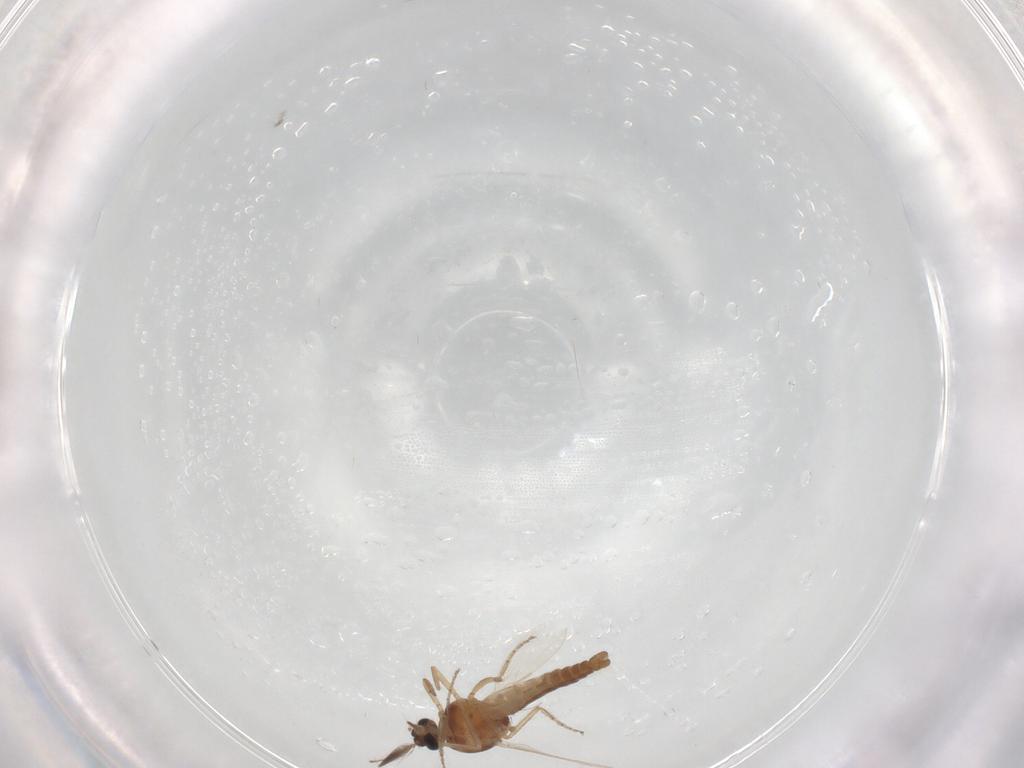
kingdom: Animalia
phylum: Arthropoda
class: Insecta
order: Diptera
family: Ceratopogonidae
